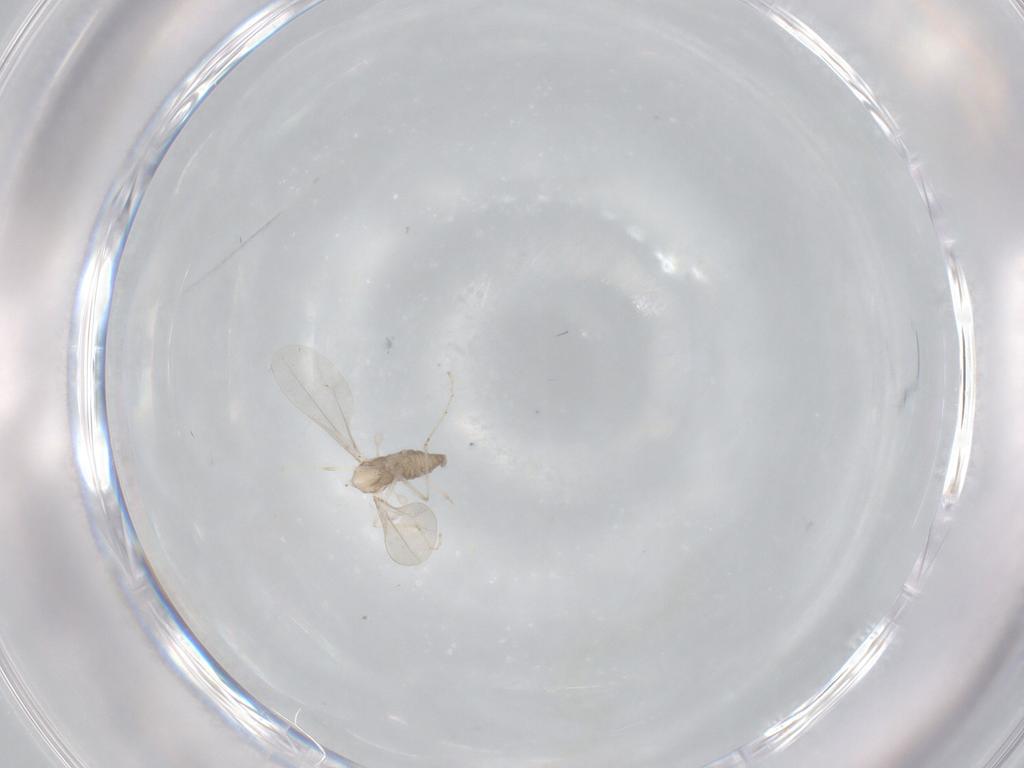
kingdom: Animalia
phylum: Arthropoda
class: Insecta
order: Diptera
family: Cecidomyiidae
